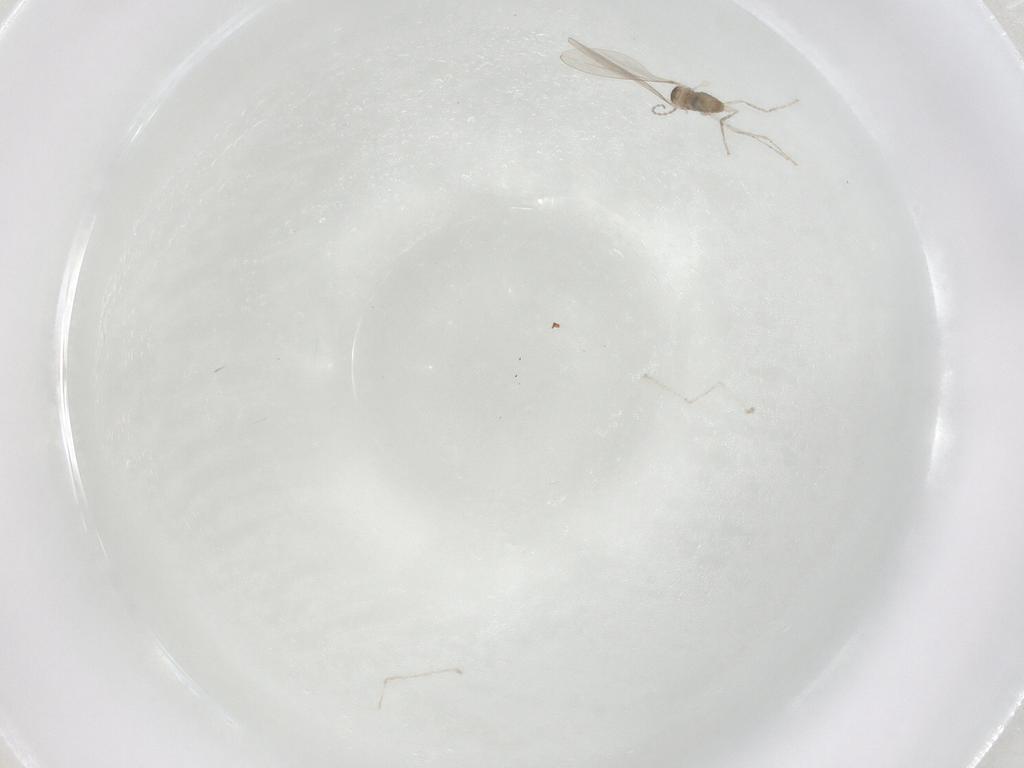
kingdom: Animalia
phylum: Arthropoda
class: Insecta
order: Diptera
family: Cecidomyiidae
